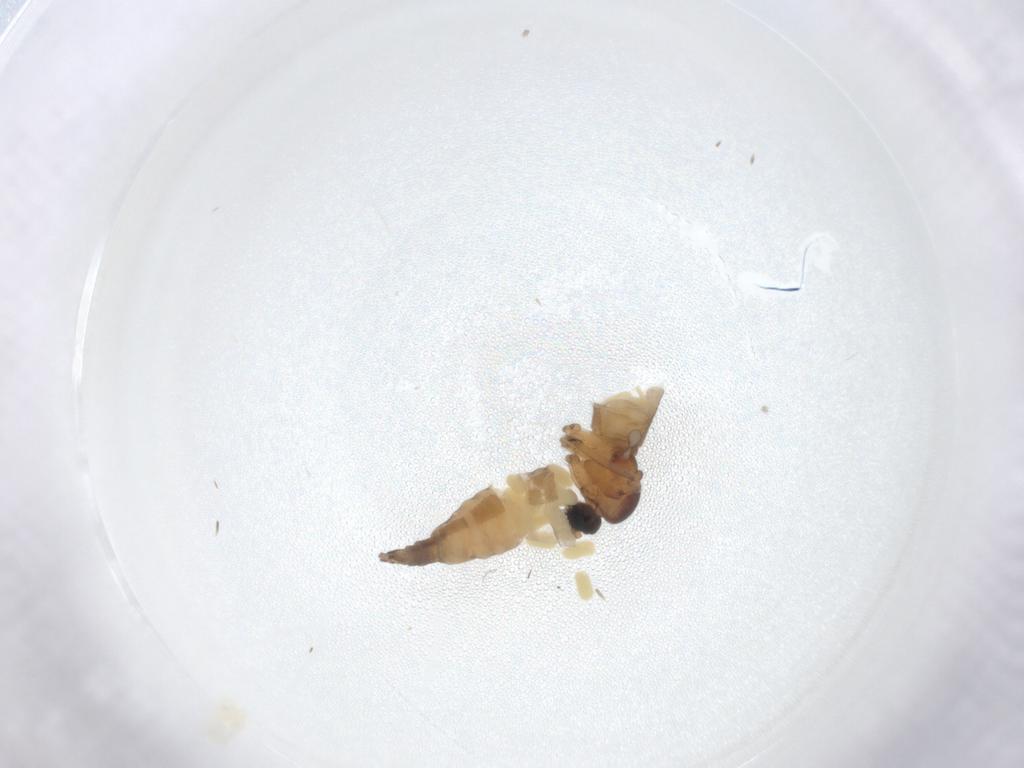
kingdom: Animalia
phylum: Arthropoda
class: Insecta
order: Diptera
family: Sciaridae
